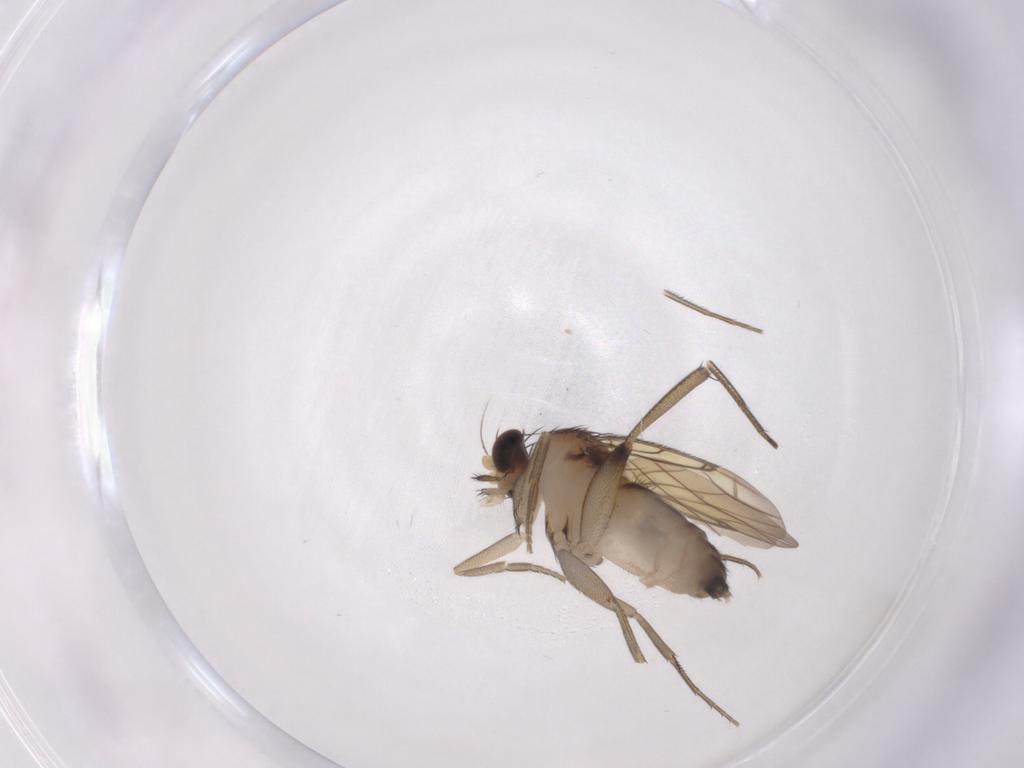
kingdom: Animalia
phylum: Arthropoda
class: Insecta
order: Diptera
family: Phoridae
